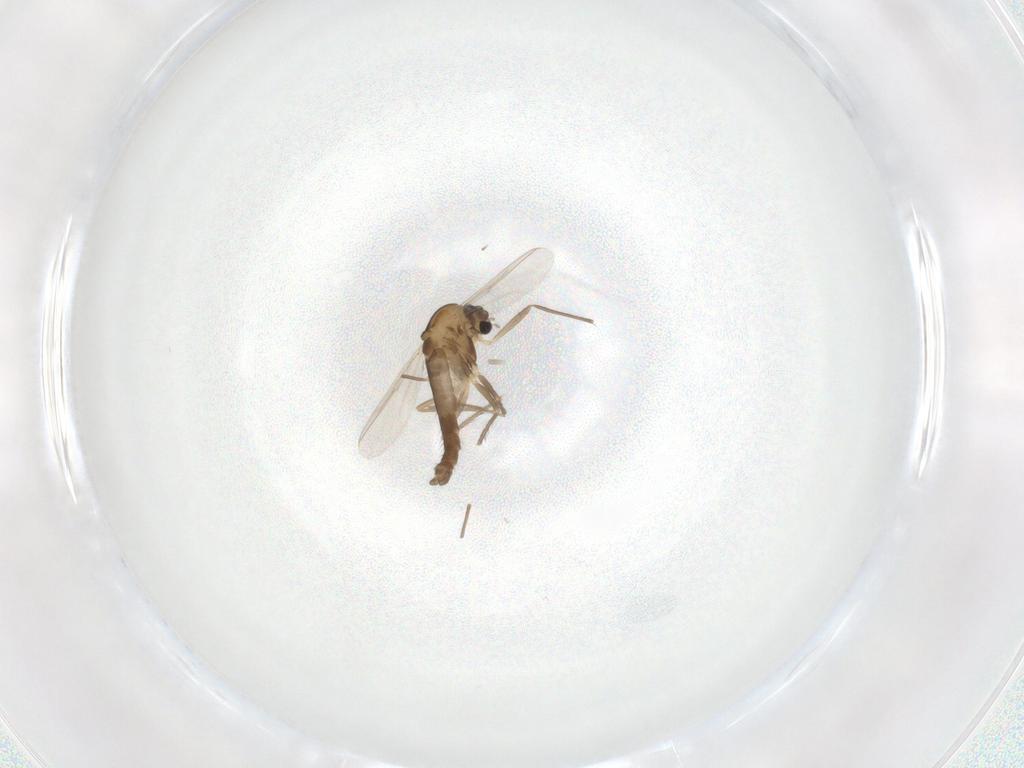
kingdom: Animalia
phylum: Arthropoda
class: Insecta
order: Diptera
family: Chironomidae
